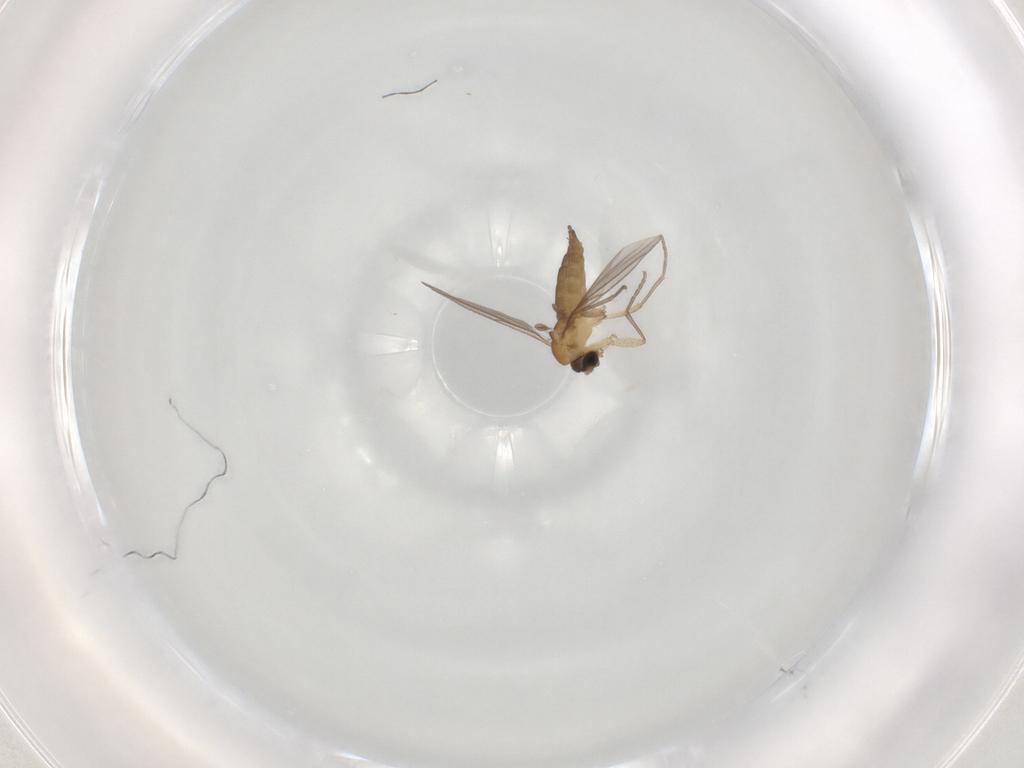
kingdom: Animalia
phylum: Arthropoda
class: Insecta
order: Diptera
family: Sciaridae
